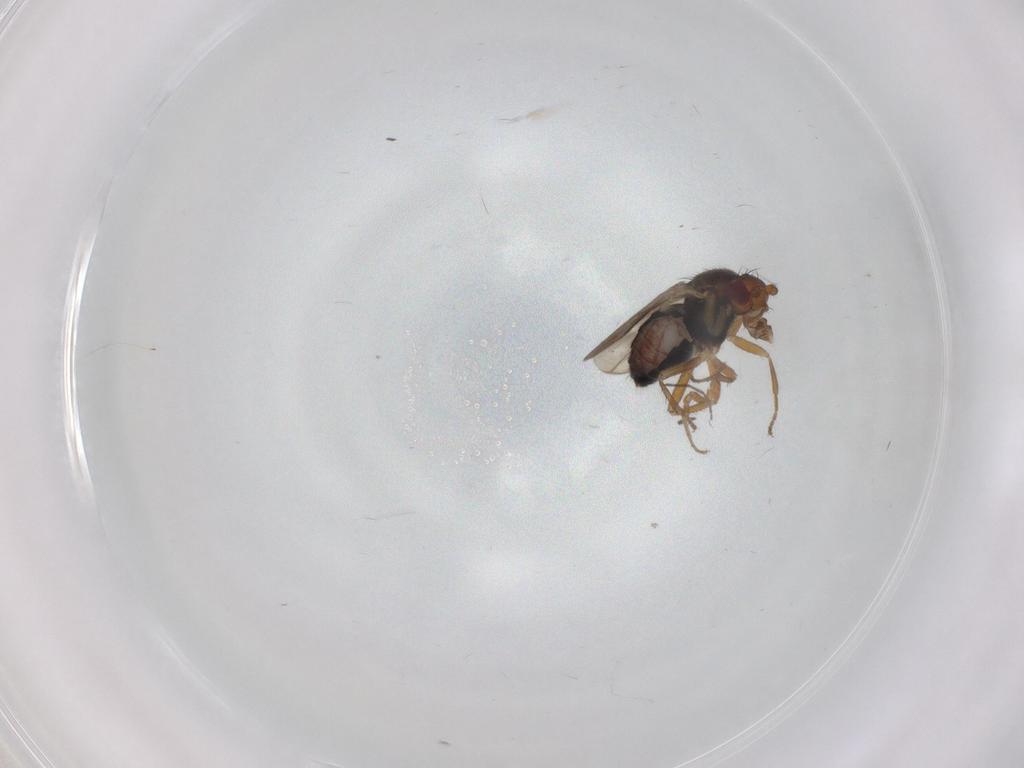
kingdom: Animalia
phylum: Arthropoda
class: Insecta
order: Diptera
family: Sphaeroceridae
